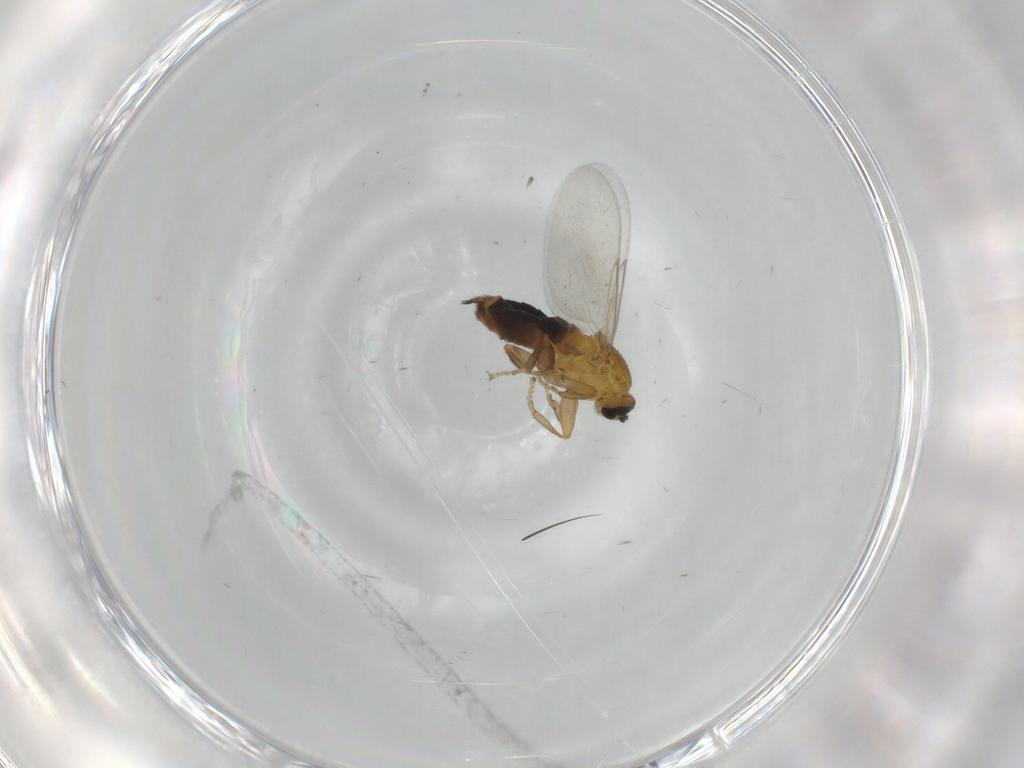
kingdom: Animalia
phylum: Arthropoda
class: Insecta
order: Diptera
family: Scatopsidae
